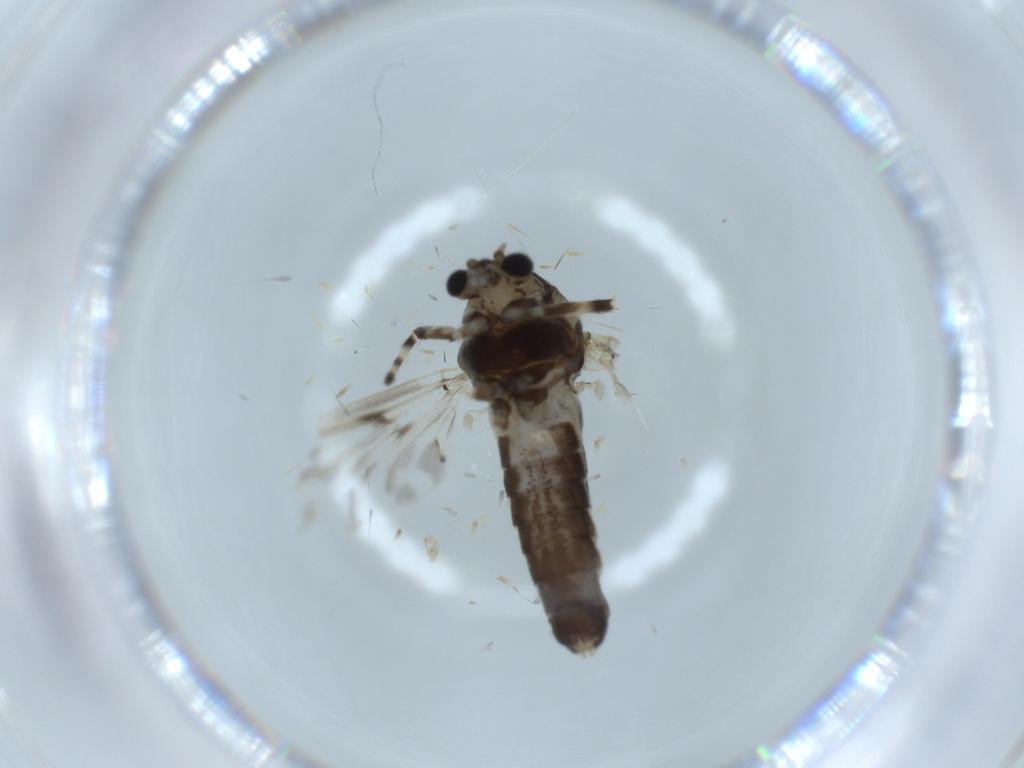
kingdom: Animalia
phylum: Arthropoda
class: Insecta
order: Diptera
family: Chironomidae
